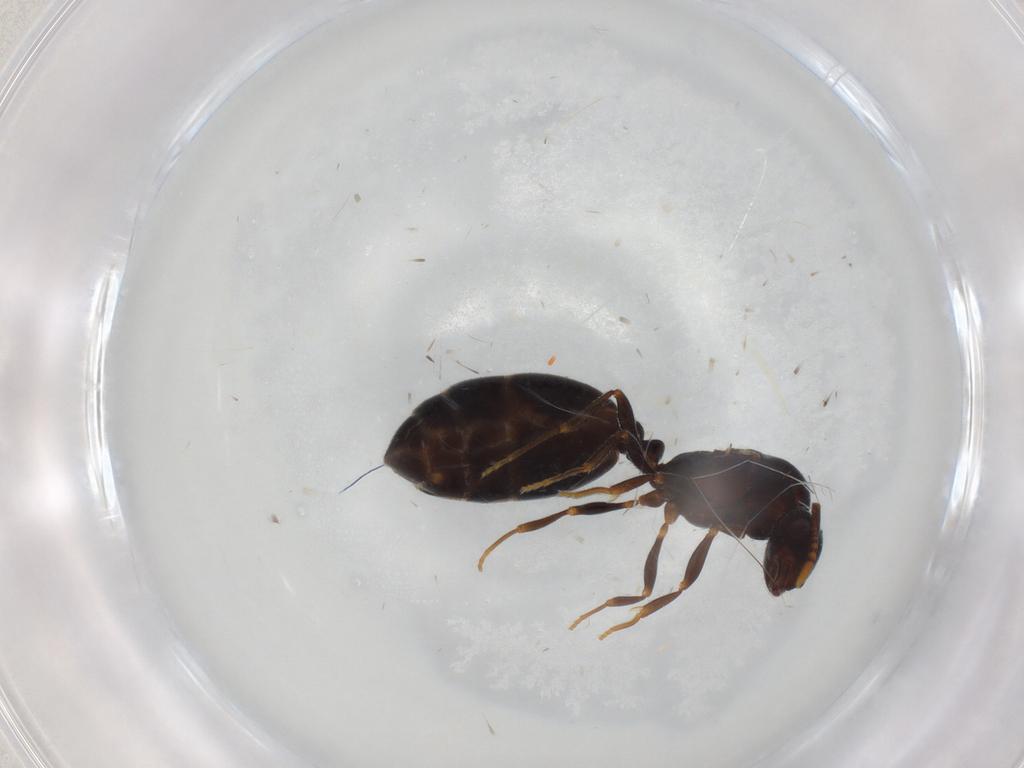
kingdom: Animalia
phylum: Arthropoda
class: Insecta
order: Hymenoptera
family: Formicidae
